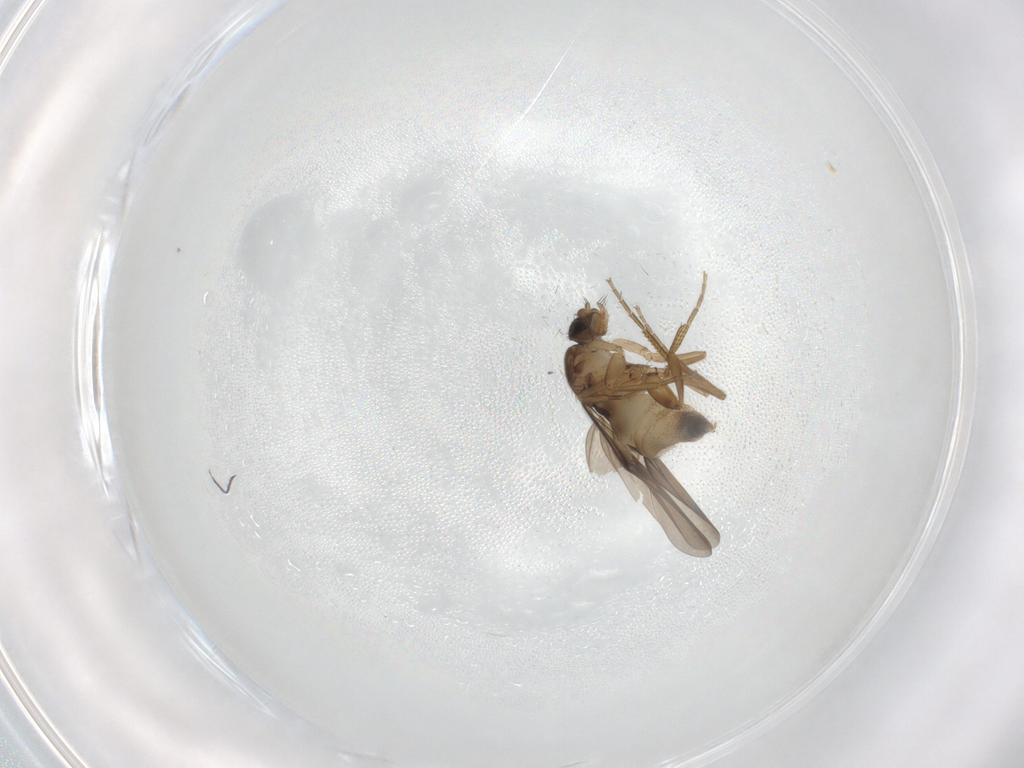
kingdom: Animalia
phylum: Arthropoda
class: Insecta
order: Diptera
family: Phoridae
